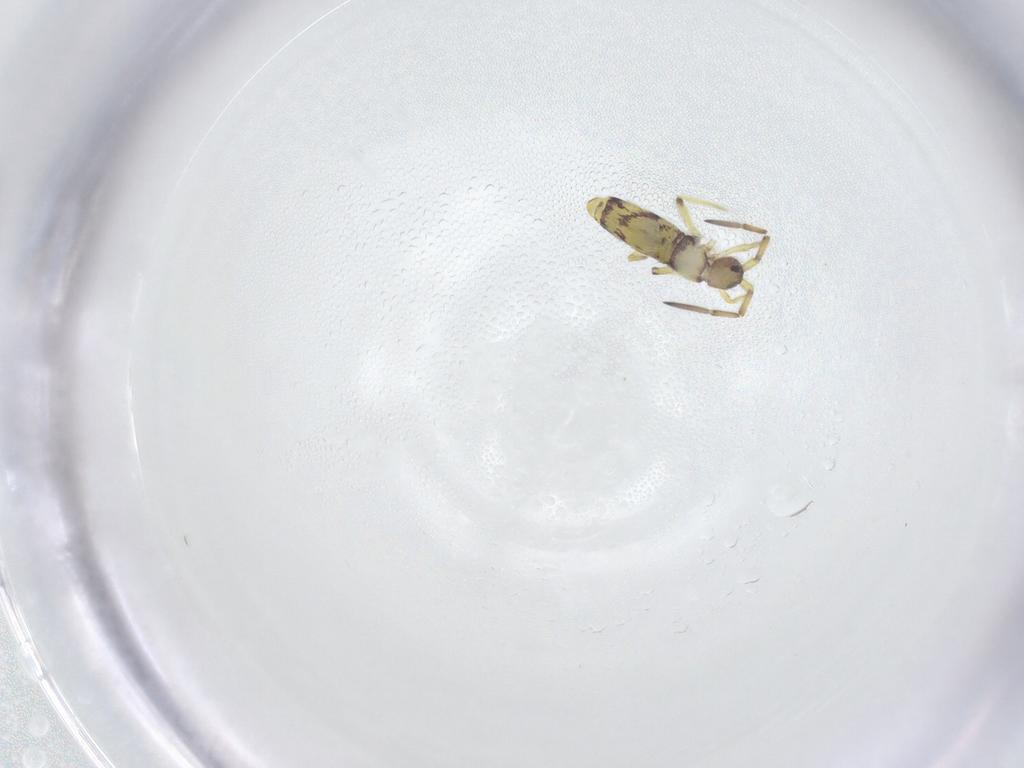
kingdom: Animalia
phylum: Arthropoda
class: Collembola
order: Entomobryomorpha
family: Entomobryidae
